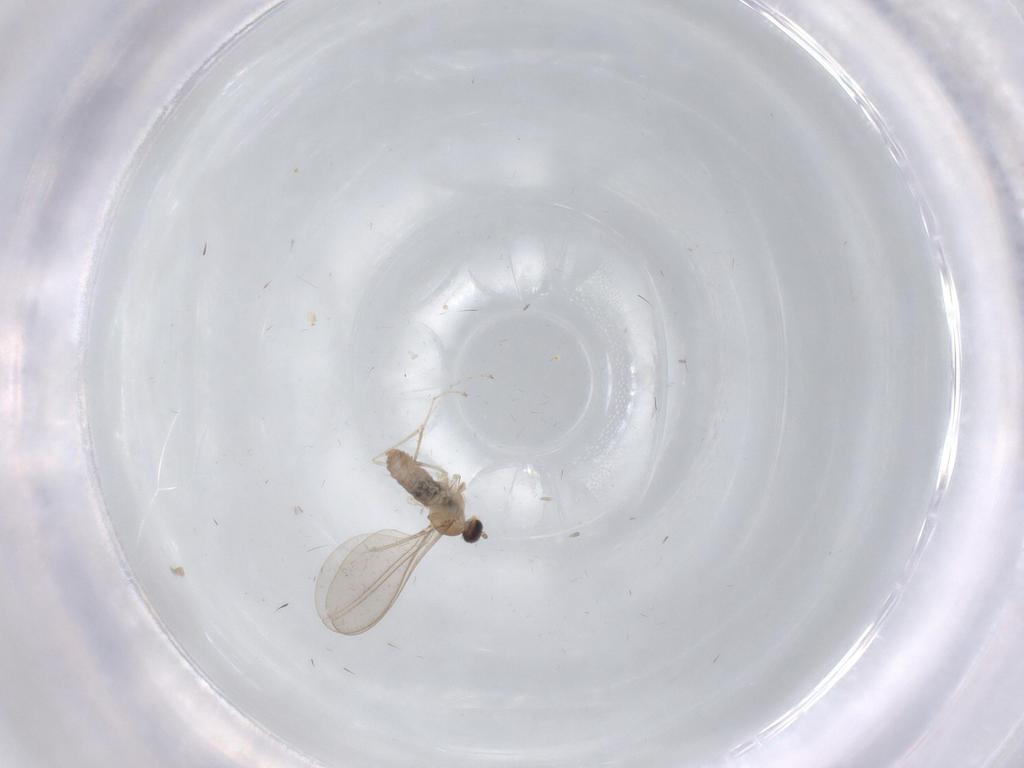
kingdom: Animalia
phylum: Arthropoda
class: Insecta
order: Diptera
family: Cecidomyiidae
